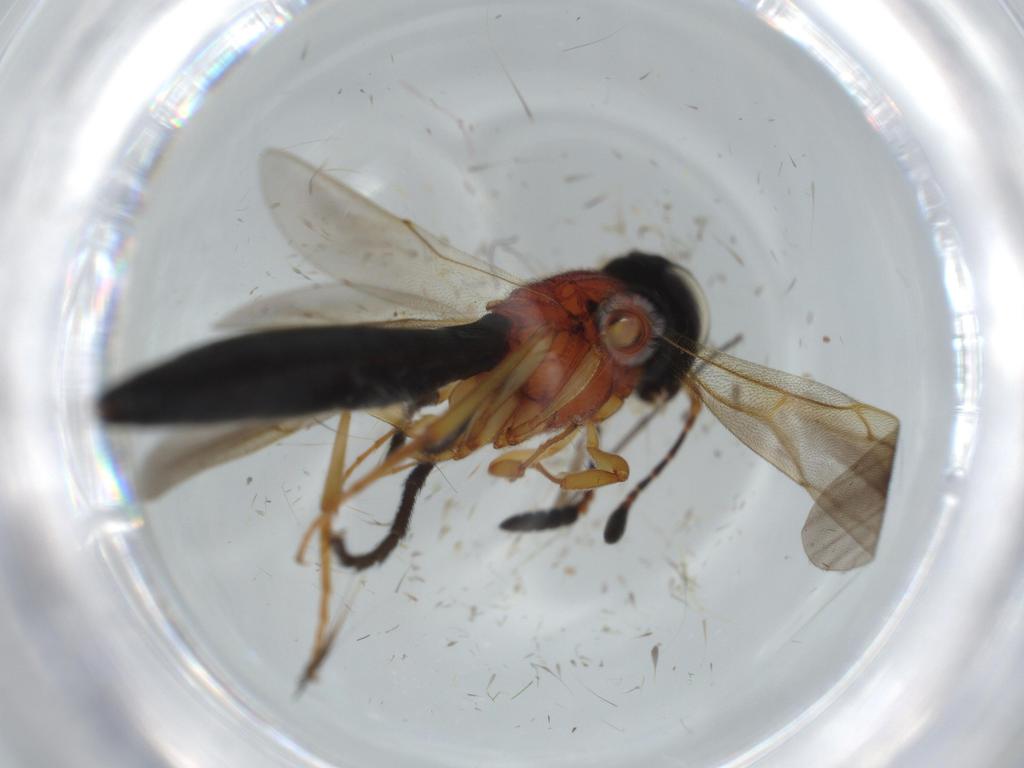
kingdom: Animalia
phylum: Arthropoda
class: Insecta
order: Hymenoptera
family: Scelionidae
